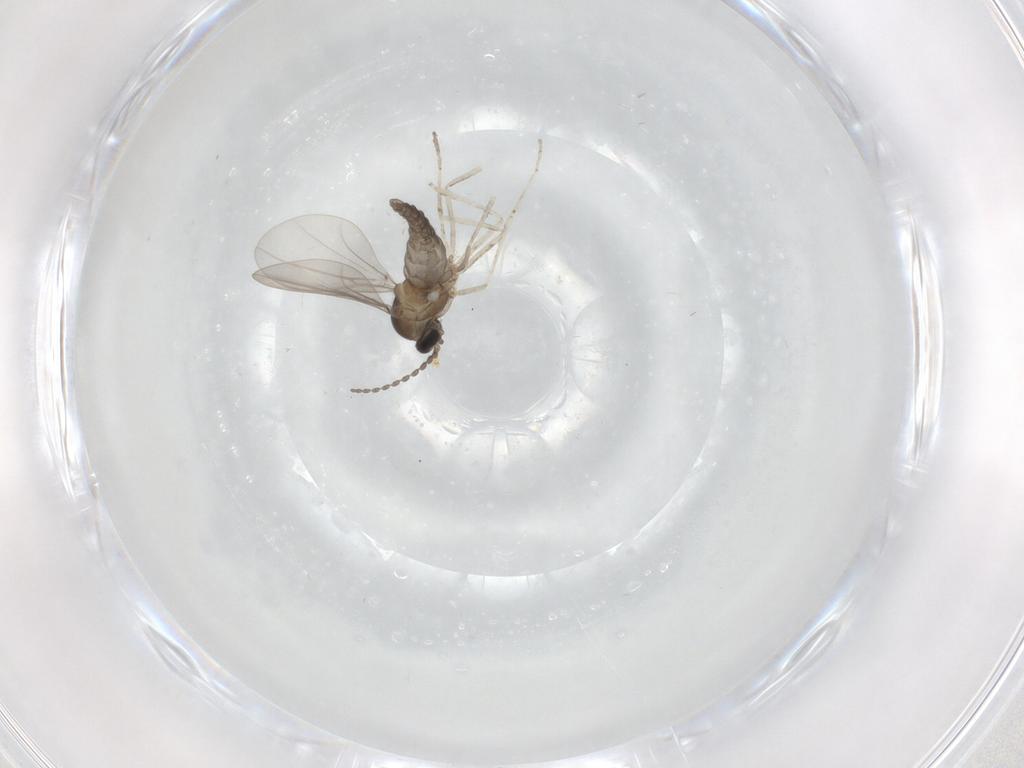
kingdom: Animalia
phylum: Arthropoda
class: Insecta
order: Diptera
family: Cecidomyiidae
